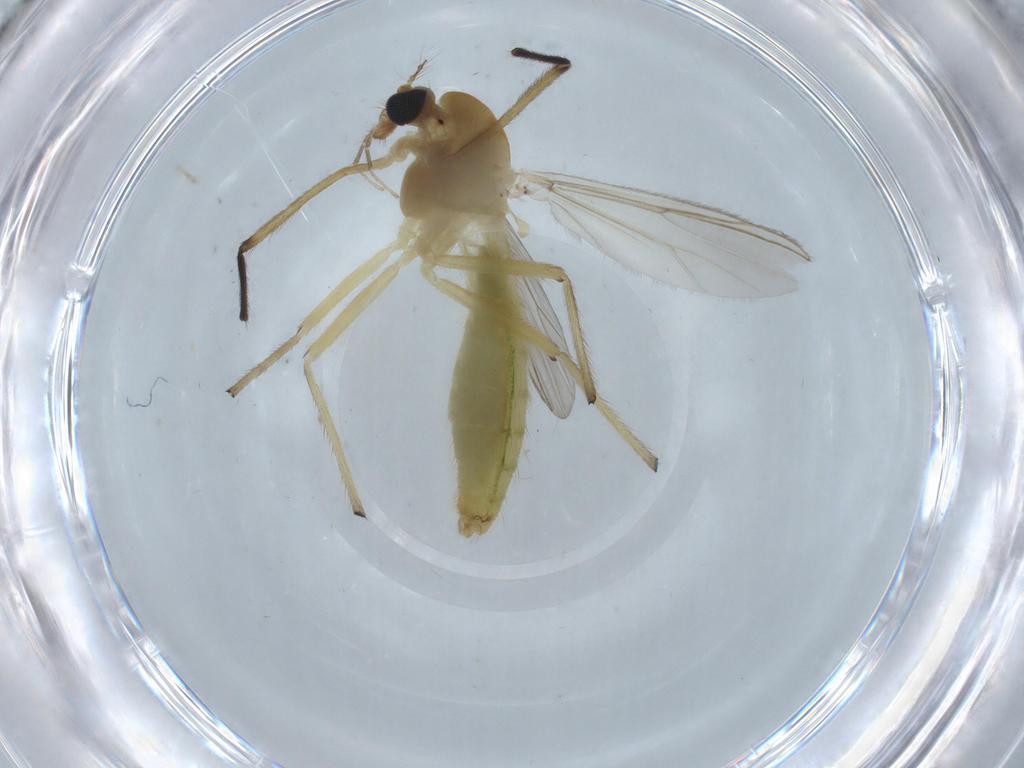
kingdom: Animalia
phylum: Arthropoda
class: Insecta
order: Diptera
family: Chironomidae
